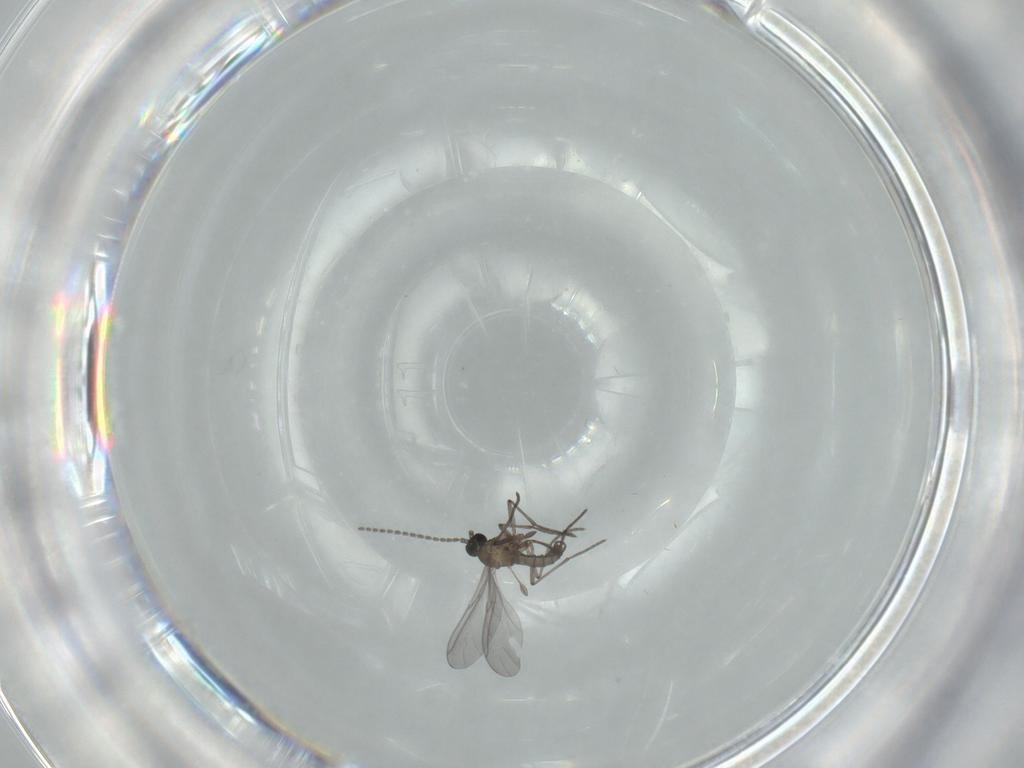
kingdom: Animalia
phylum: Arthropoda
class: Insecta
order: Diptera
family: Sciaridae
